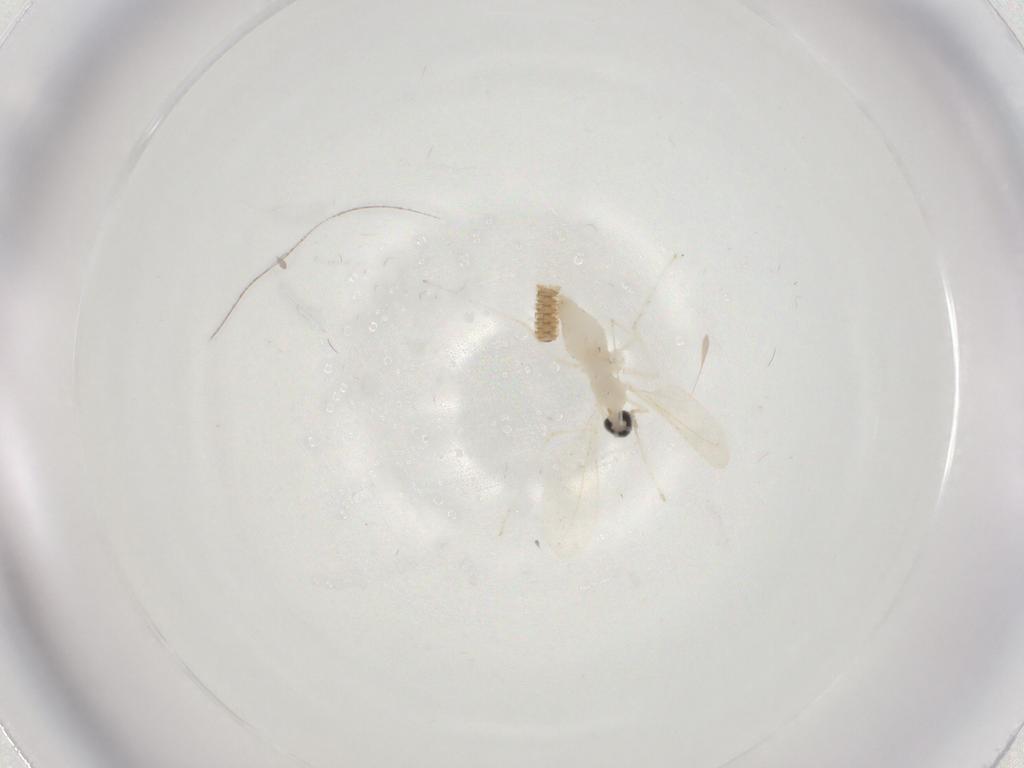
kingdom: Animalia
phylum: Arthropoda
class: Insecta
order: Diptera
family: Cecidomyiidae
